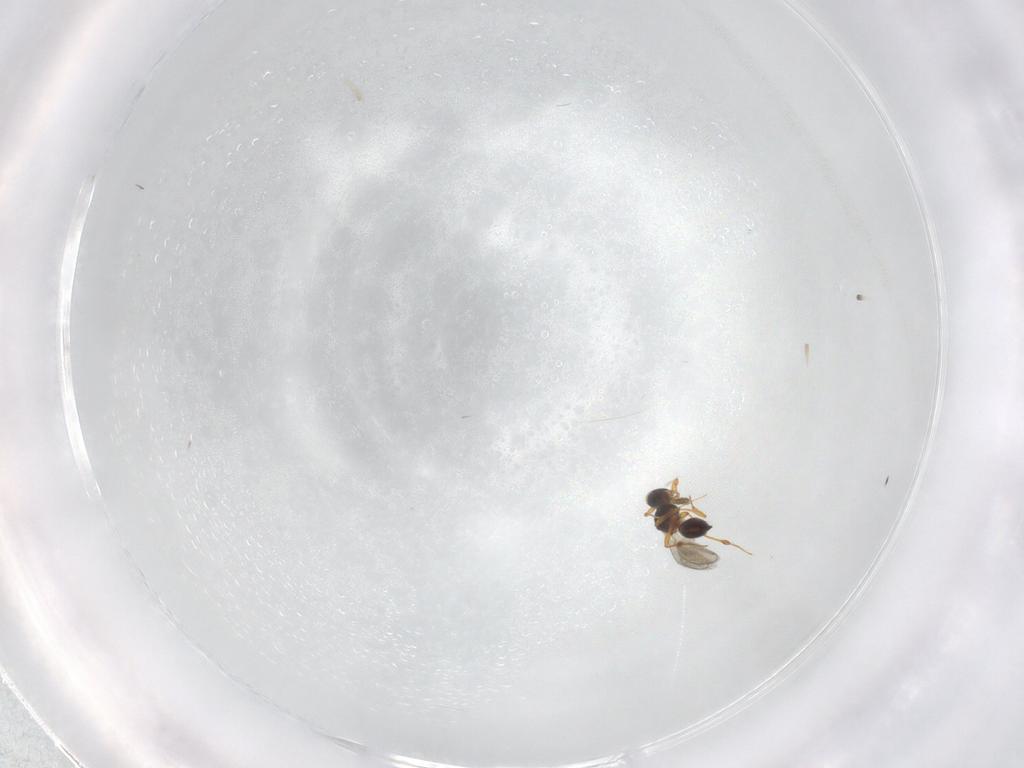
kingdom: Animalia
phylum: Arthropoda
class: Insecta
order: Hymenoptera
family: Platygastridae
